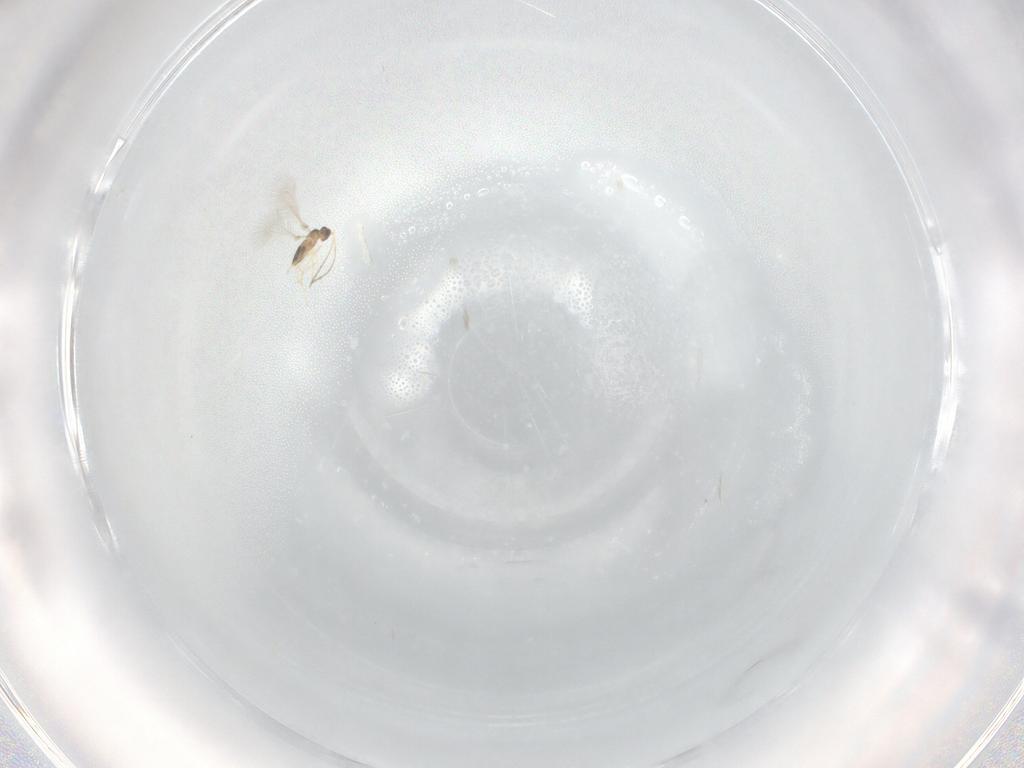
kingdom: Animalia
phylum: Arthropoda
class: Insecta
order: Hymenoptera
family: Mymaridae
